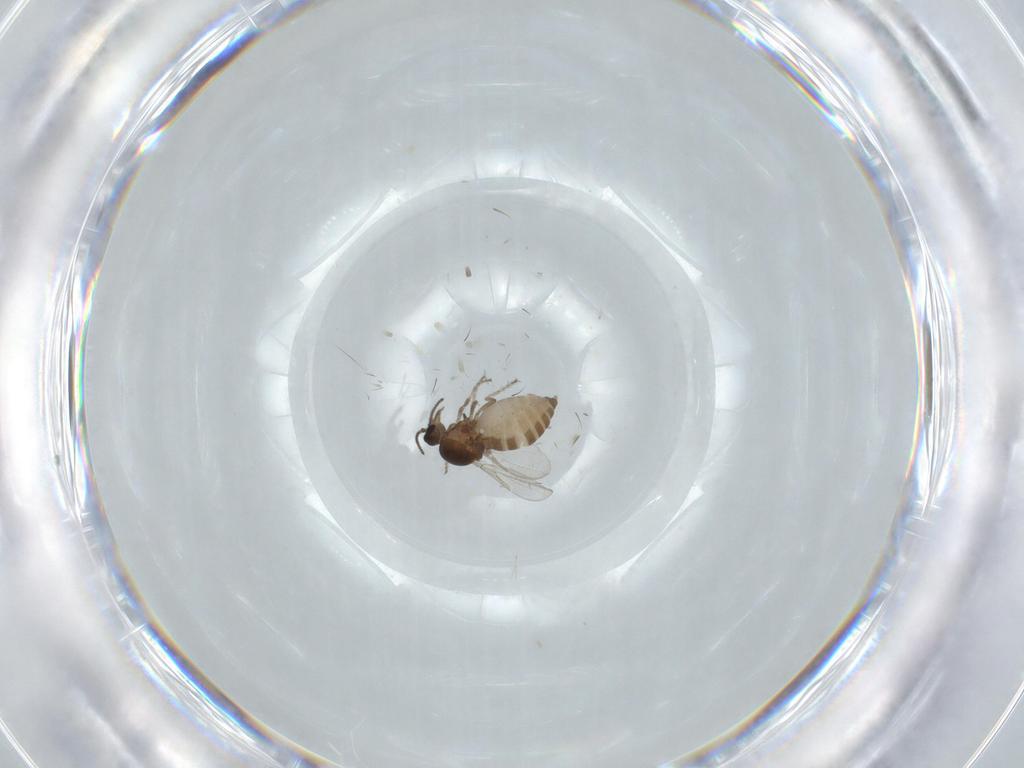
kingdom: Animalia
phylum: Arthropoda
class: Insecta
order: Diptera
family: Ceratopogonidae
